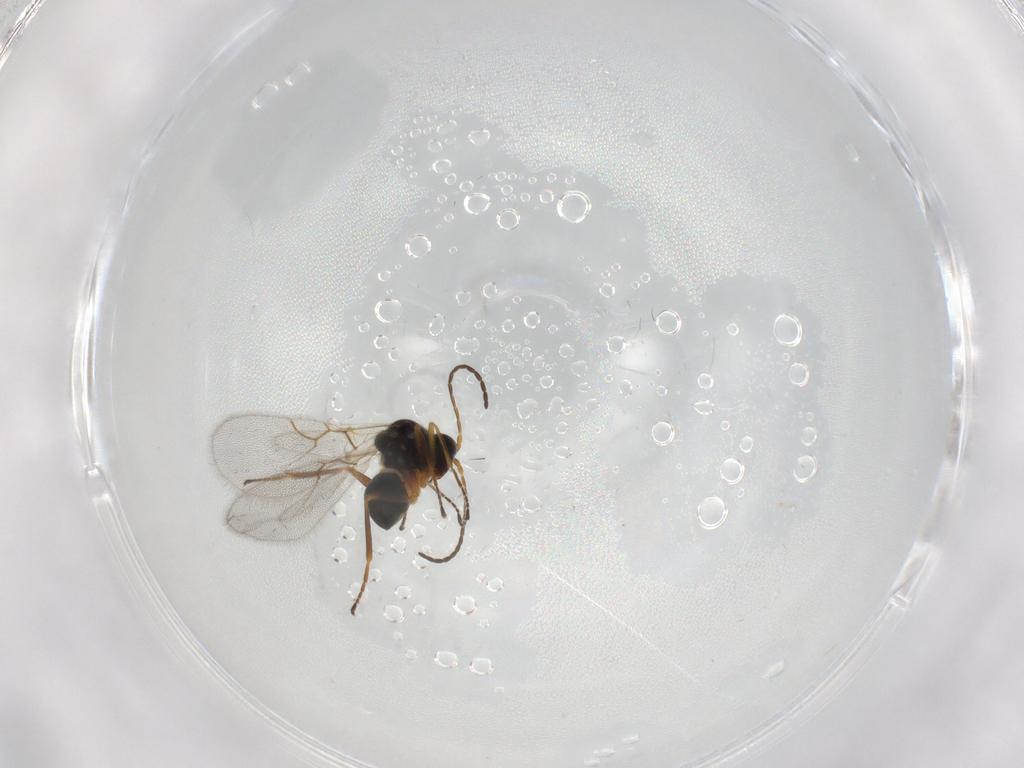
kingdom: Animalia
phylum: Arthropoda
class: Insecta
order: Hymenoptera
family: Figitidae
